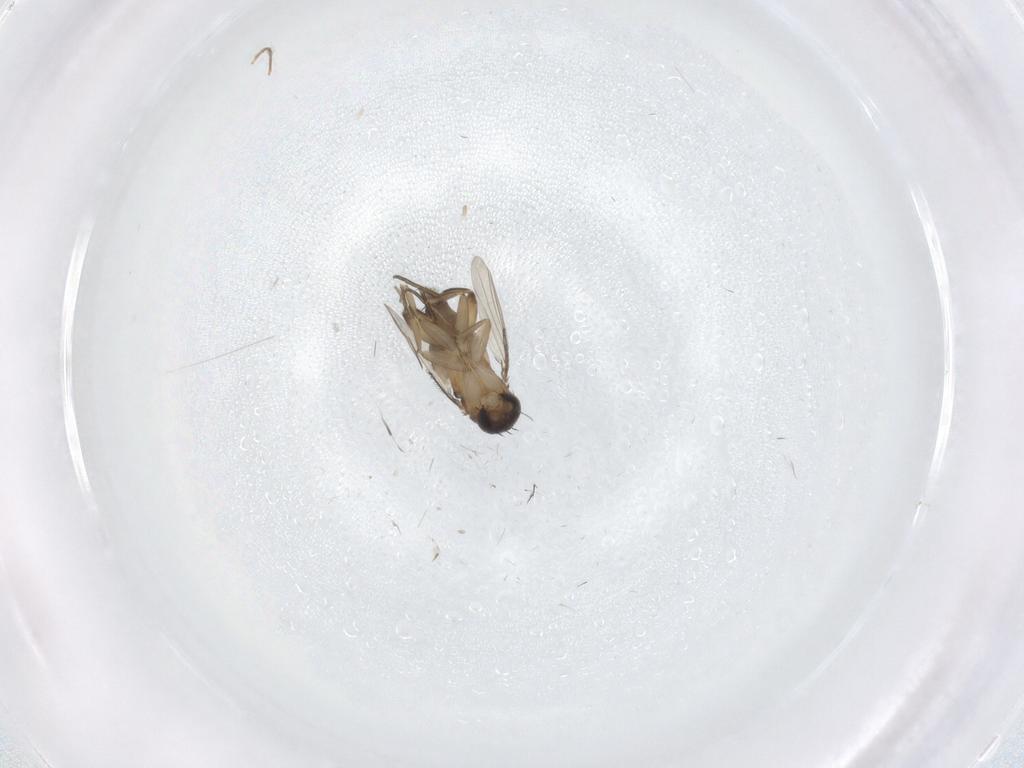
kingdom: Animalia
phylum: Arthropoda
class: Insecta
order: Diptera
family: Phoridae
